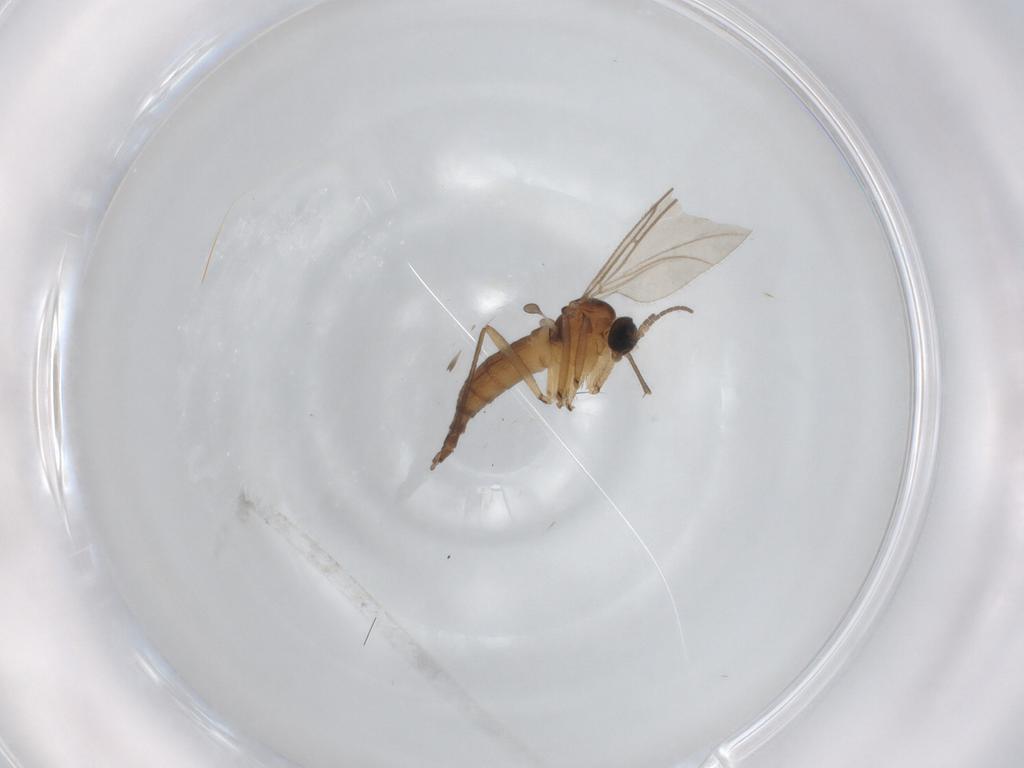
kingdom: Animalia
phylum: Arthropoda
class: Insecta
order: Diptera
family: Sciaridae
